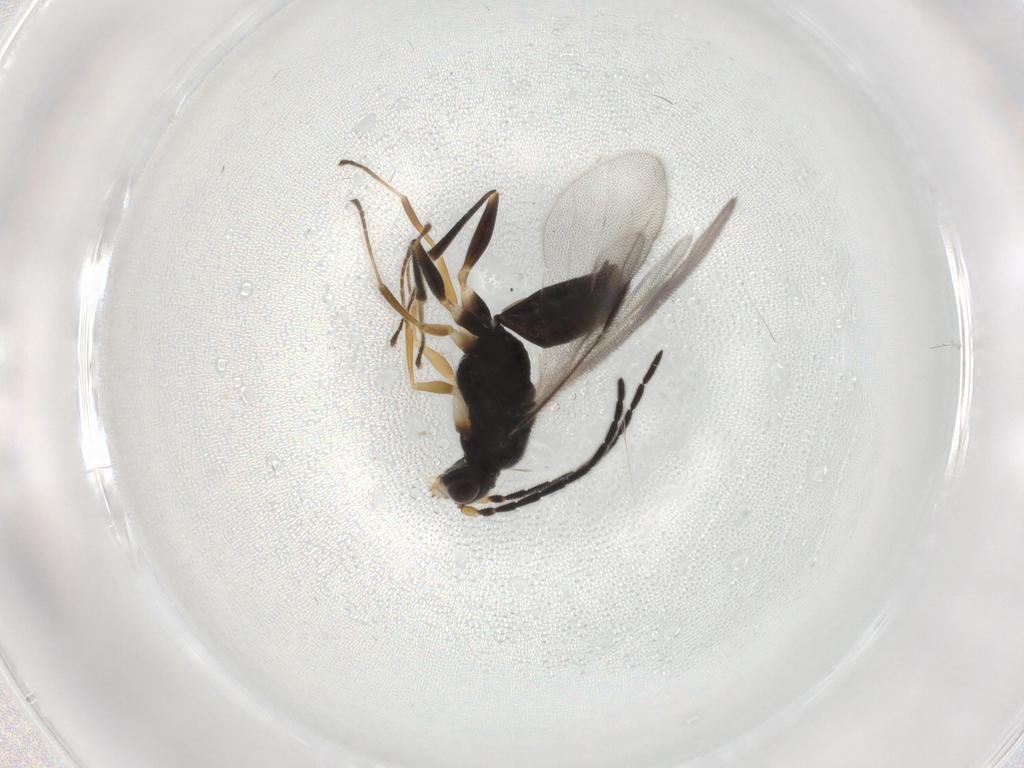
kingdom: Animalia
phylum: Arthropoda
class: Insecta
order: Hymenoptera
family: Dryinidae
